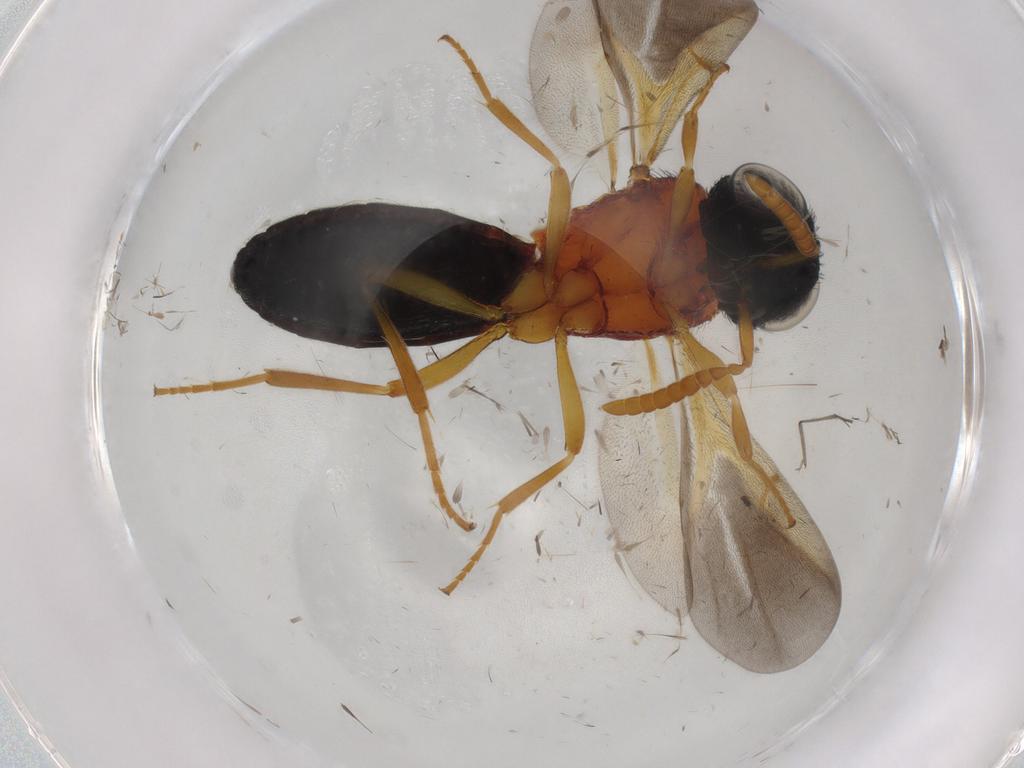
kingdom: Animalia
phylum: Arthropoda
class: Insecta
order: Hymenoptera
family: Scelionidae
